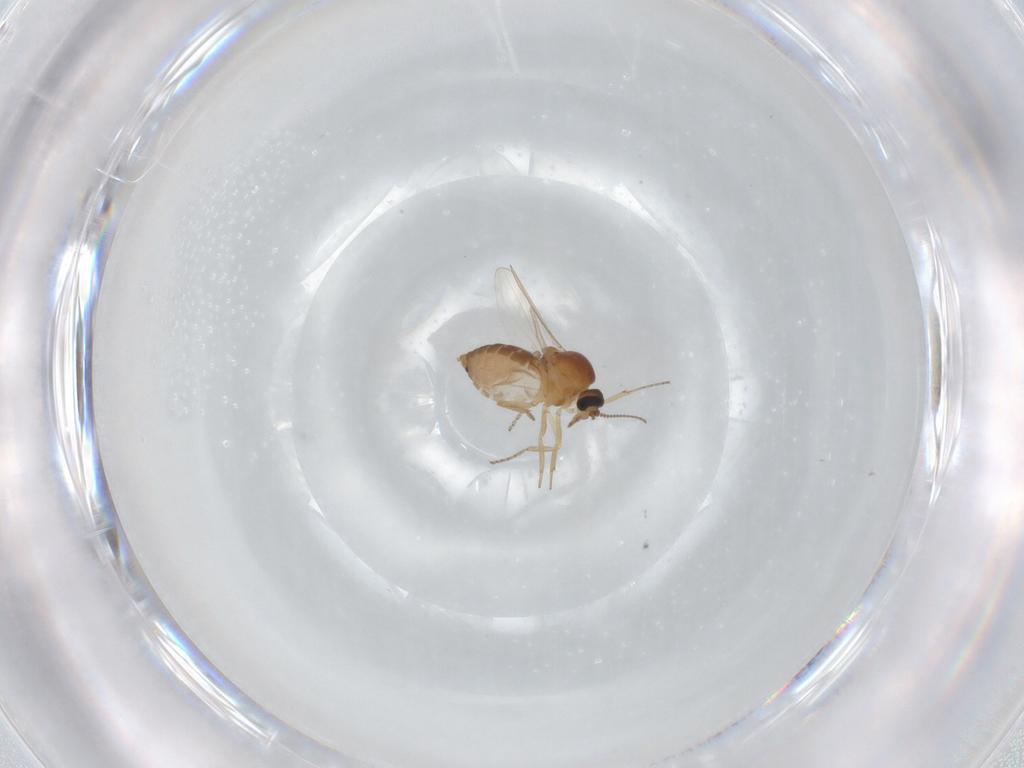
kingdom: Animalia
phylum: Arthropoda
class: Insecta
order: Diptera
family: Ceratopogonidae
